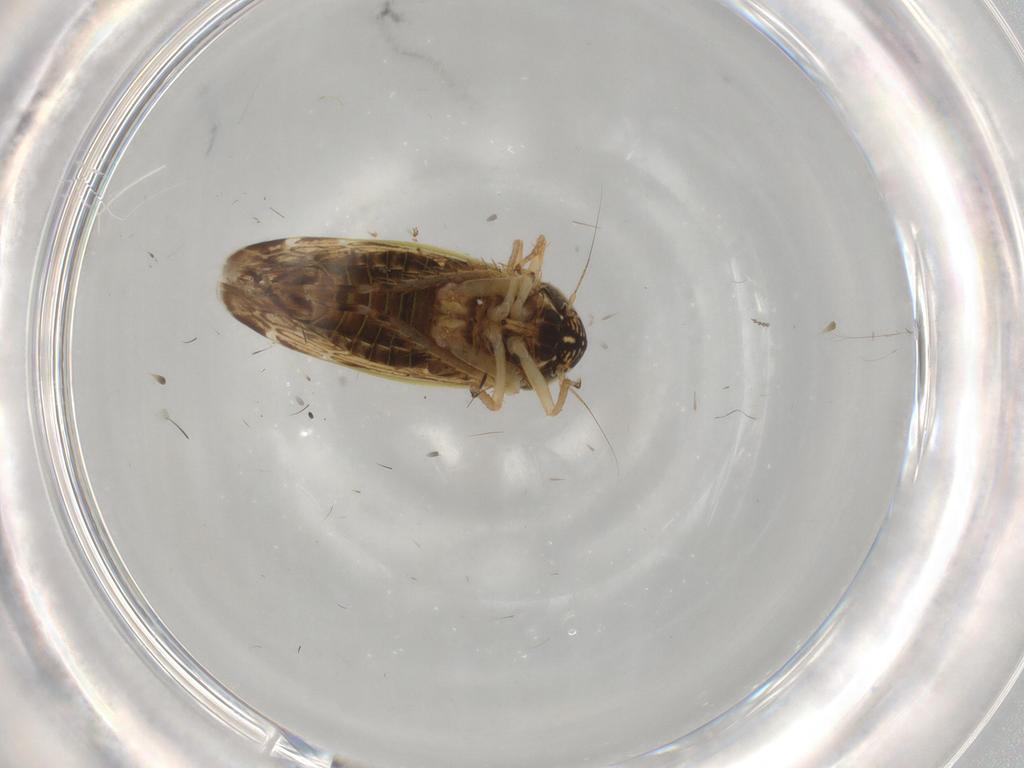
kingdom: Animalia
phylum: Arthropoda
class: Insecta
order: Hemiptera
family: Cicadellidae
